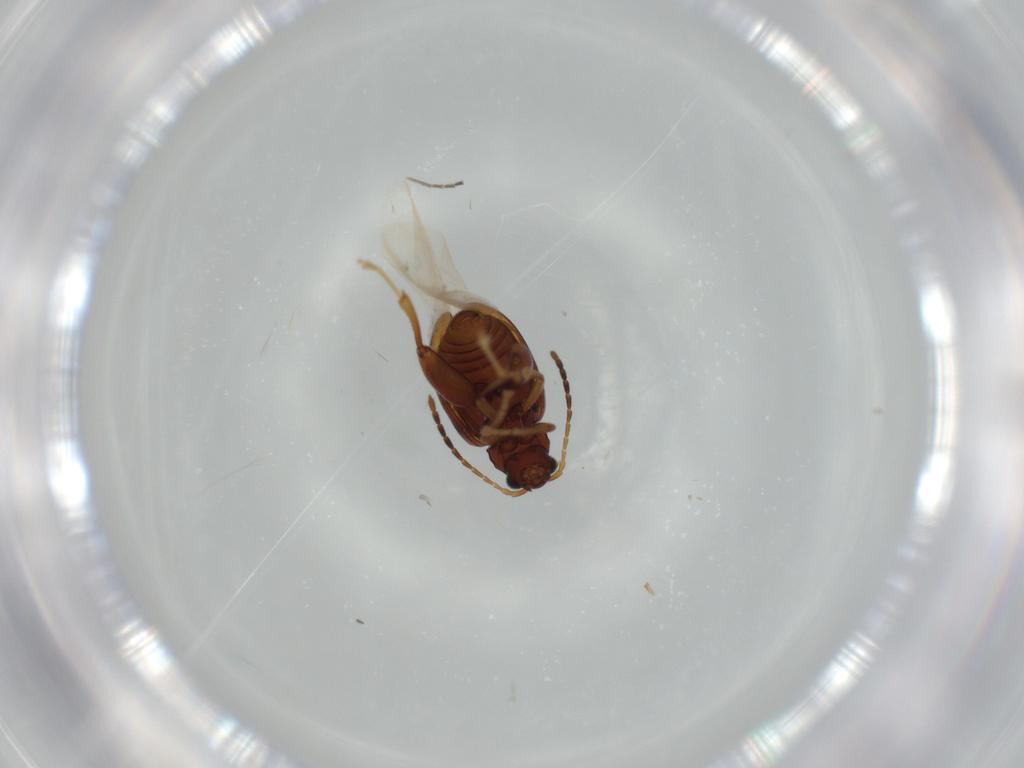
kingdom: Animalia
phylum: Arthropoda
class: Insecta
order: Coleoptera
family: Chrysomelidae
